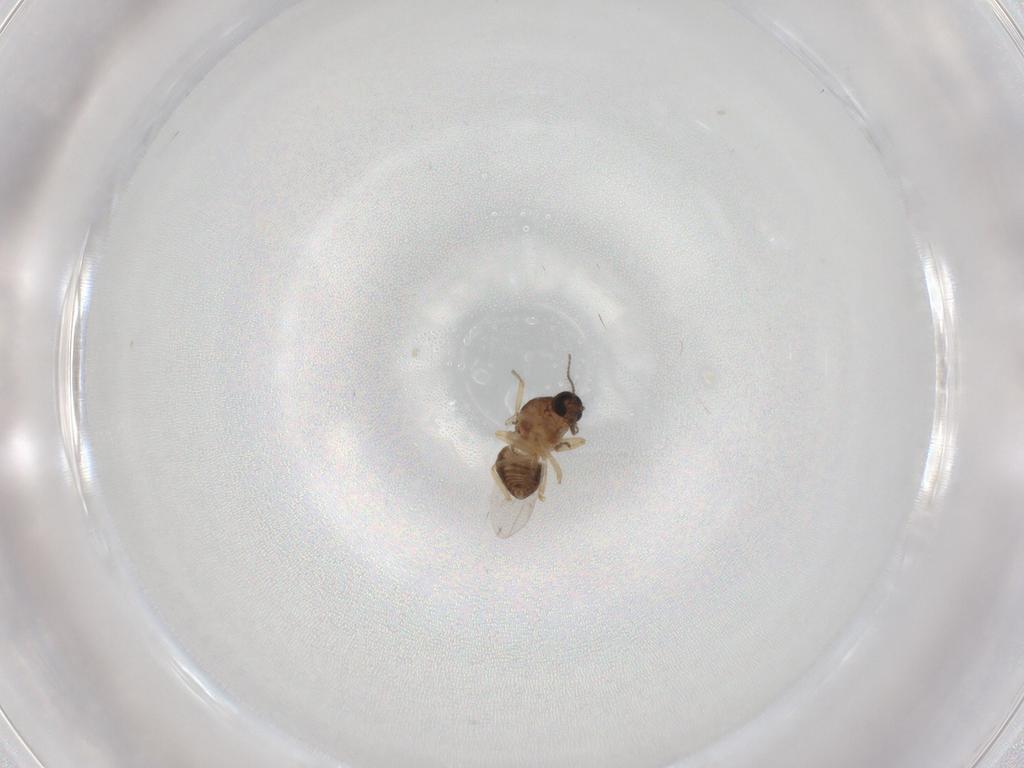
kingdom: Animalia
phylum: Arthropoda
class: Insecta
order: Diptera
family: Ceratopogonidae
